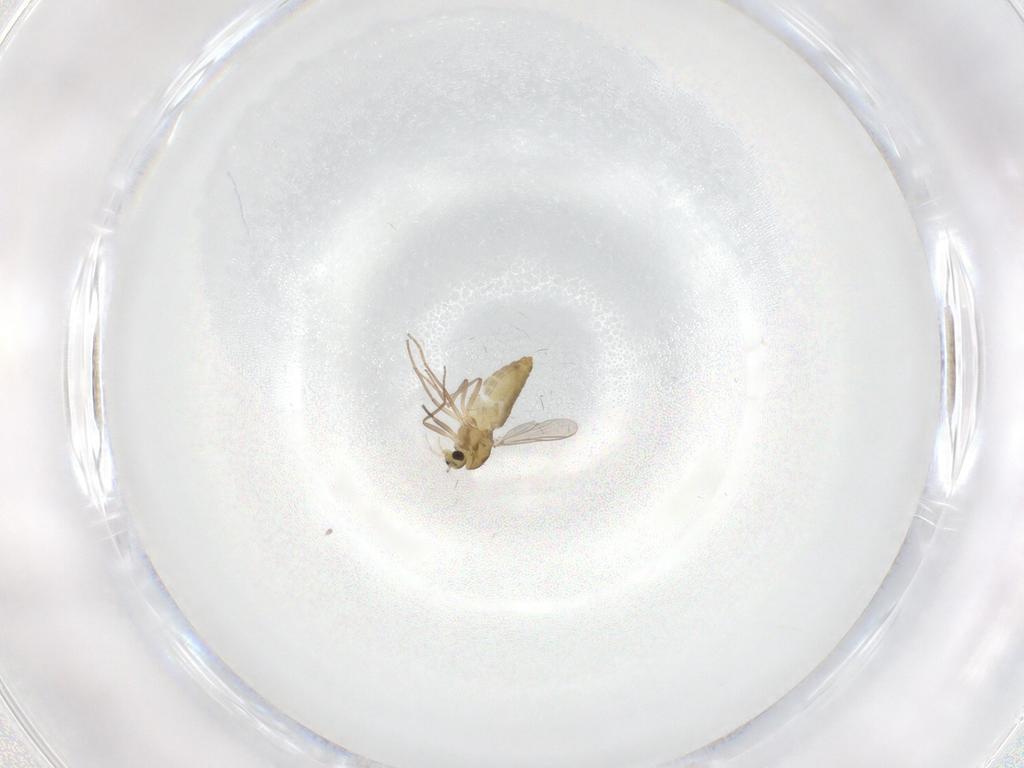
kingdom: Animalia
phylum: Arthropoda
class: Insecta
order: Diptera
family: Chironomidae
